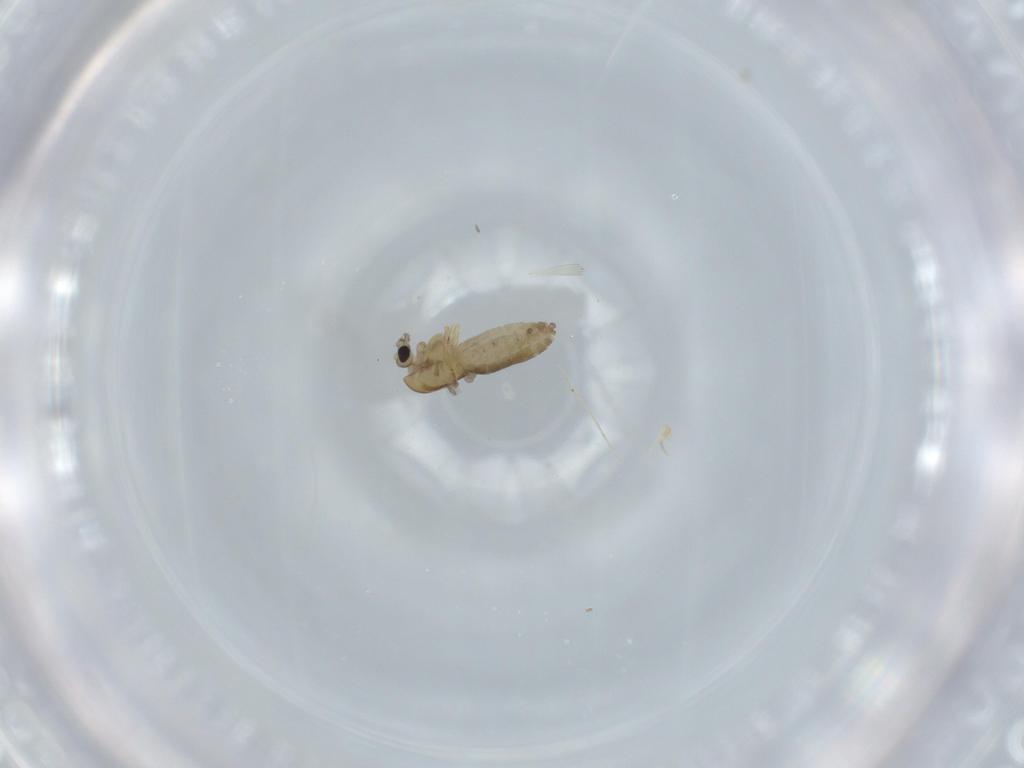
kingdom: Animalia
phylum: Arthropoda
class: Insecta
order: Diptera
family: Chironomidae
